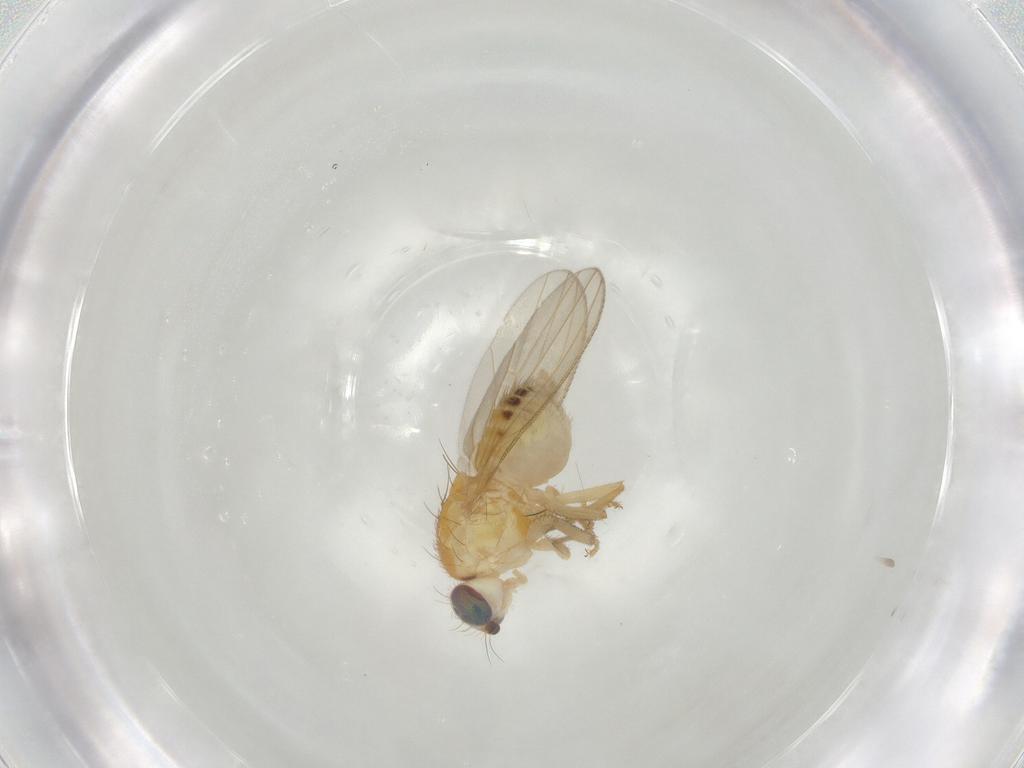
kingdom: Animalia
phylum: Arthropoda
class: Insecta
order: Diptera
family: Chyromyidae
